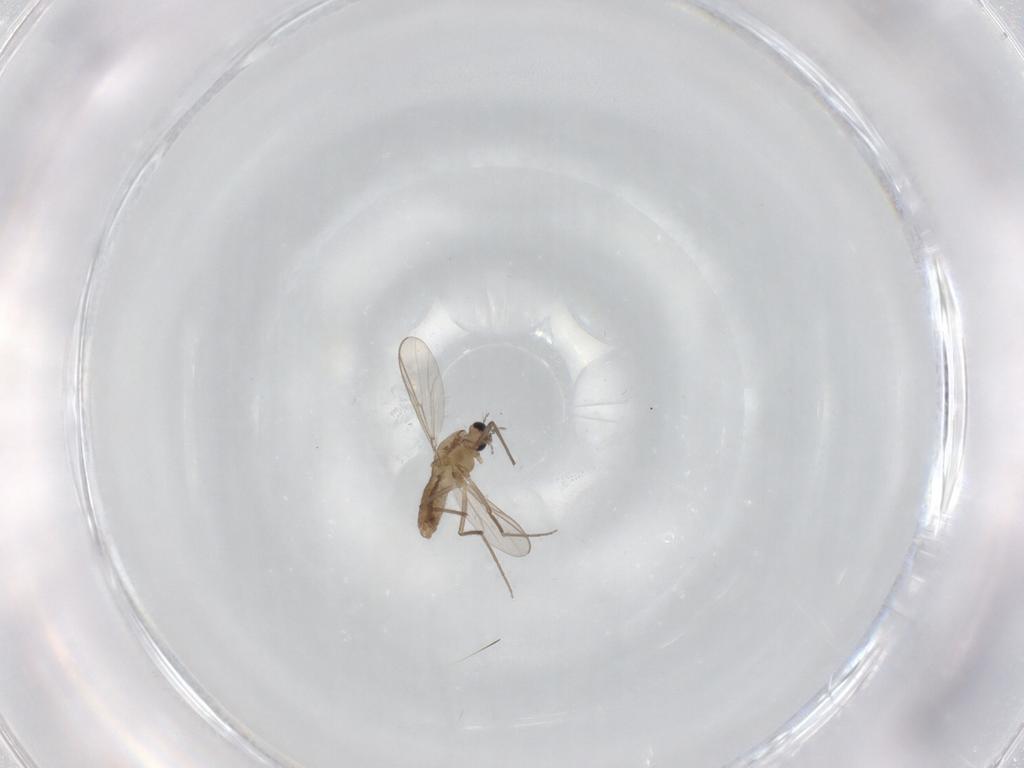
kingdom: Animalia
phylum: Arthropoda
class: Insecta
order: Diptera
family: Chironomidae
